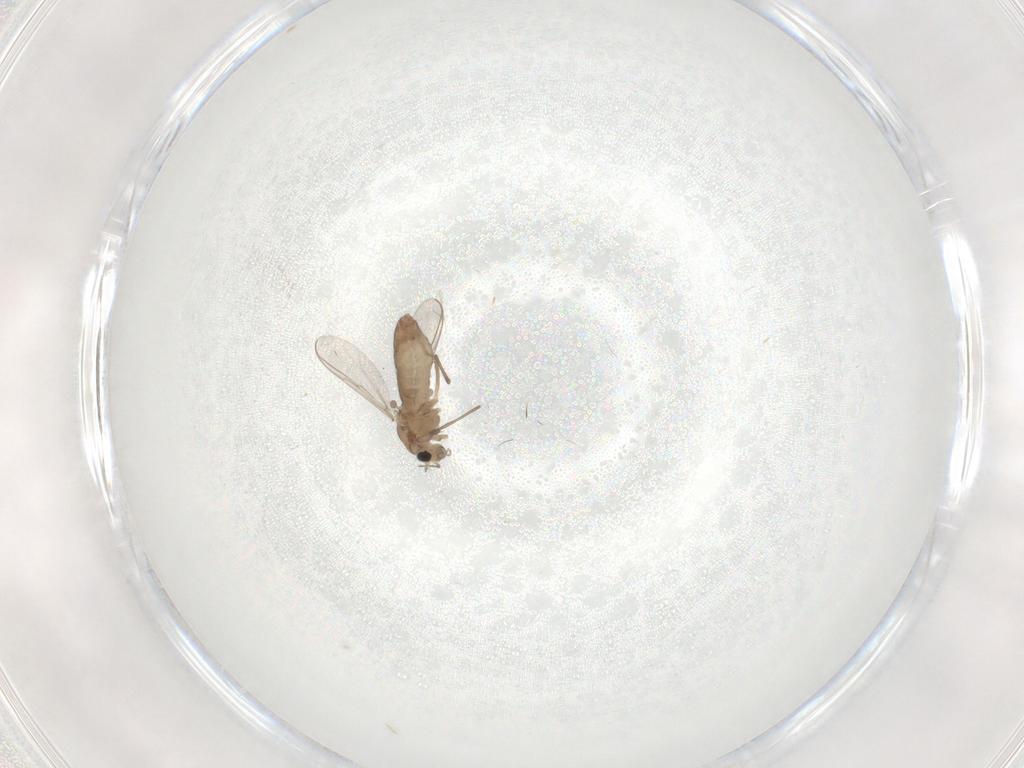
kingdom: Animalia
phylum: Arthropoda
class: Insecta
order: Diptera
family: Chironomidae
